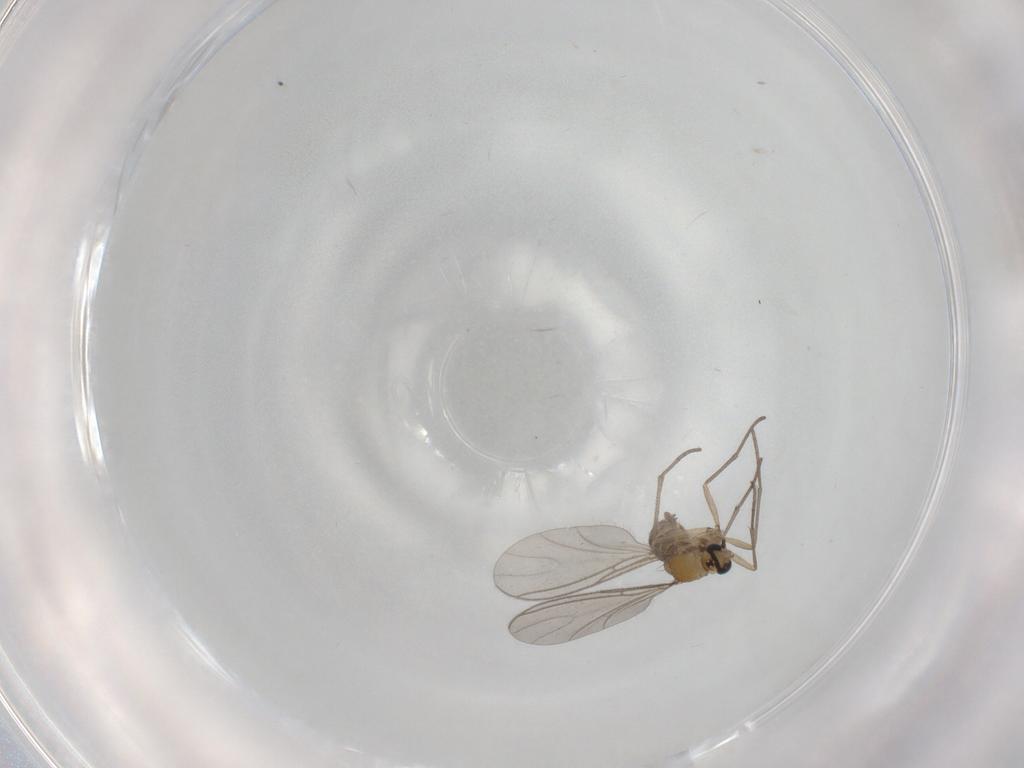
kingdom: Animalia
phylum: Arthropoda
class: Insecta
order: Diptera
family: Sciaridae
